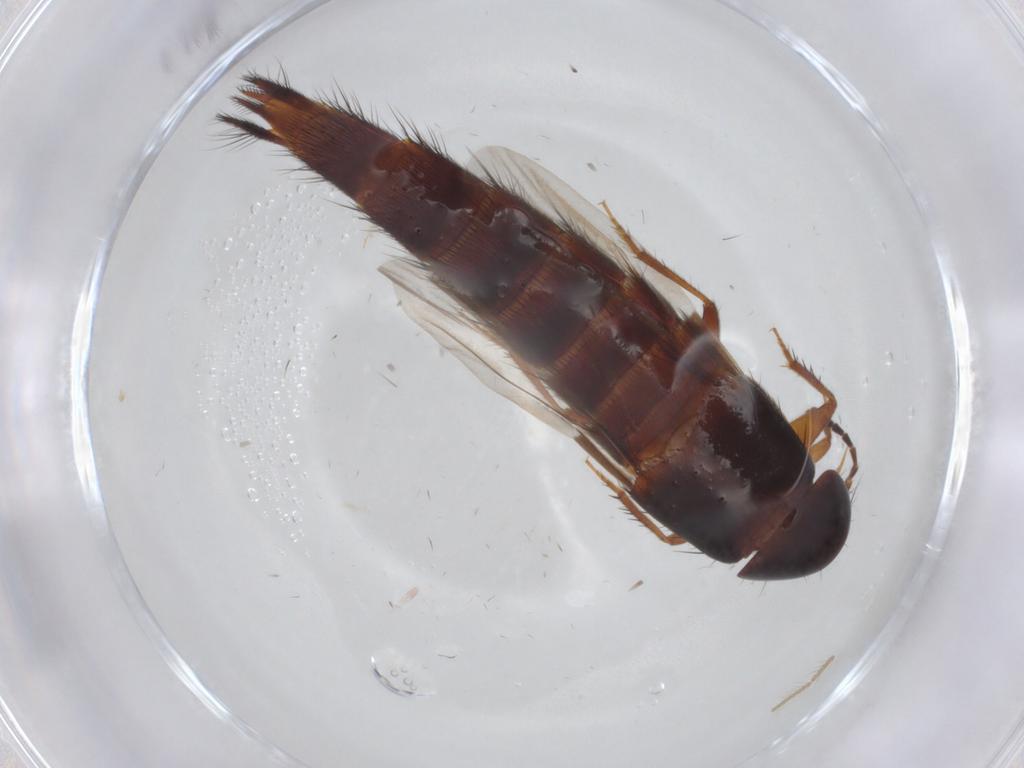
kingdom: Animalia
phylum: Arthropoda
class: Insecta
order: Coleoptera
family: Staphylinidae
